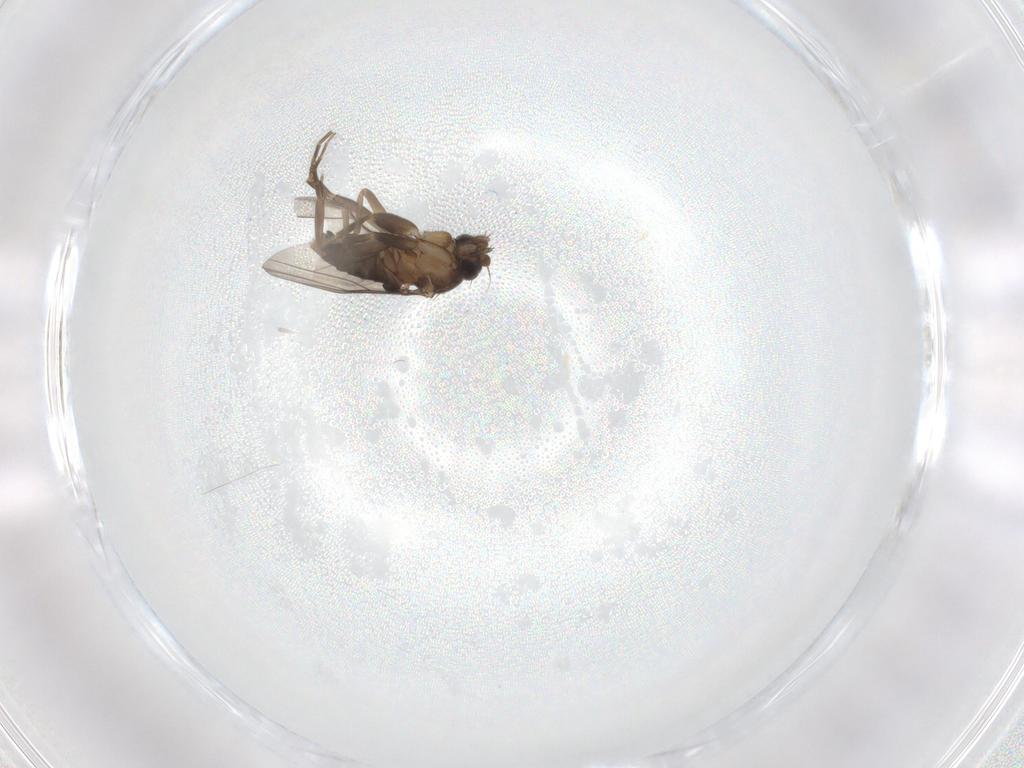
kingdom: Animalia
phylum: Arthropoda
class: Insecta
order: Diptera
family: Phoridae
